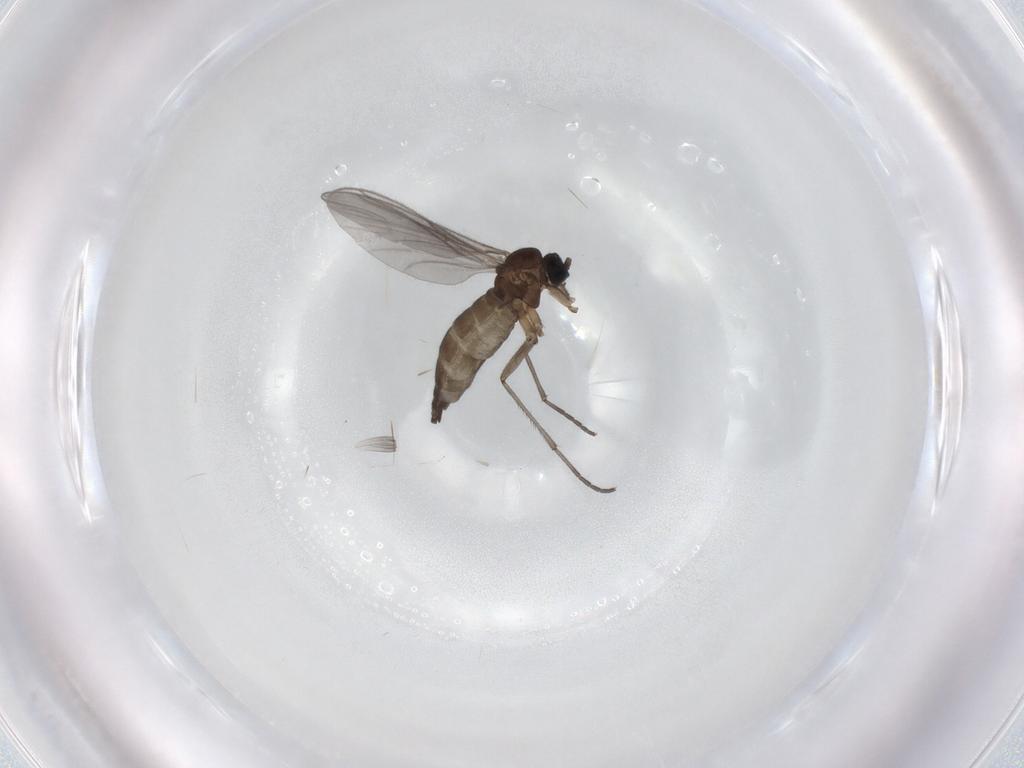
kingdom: Animalia
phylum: Arthropoda
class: Insecta
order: Diptera
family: Sciaridae
